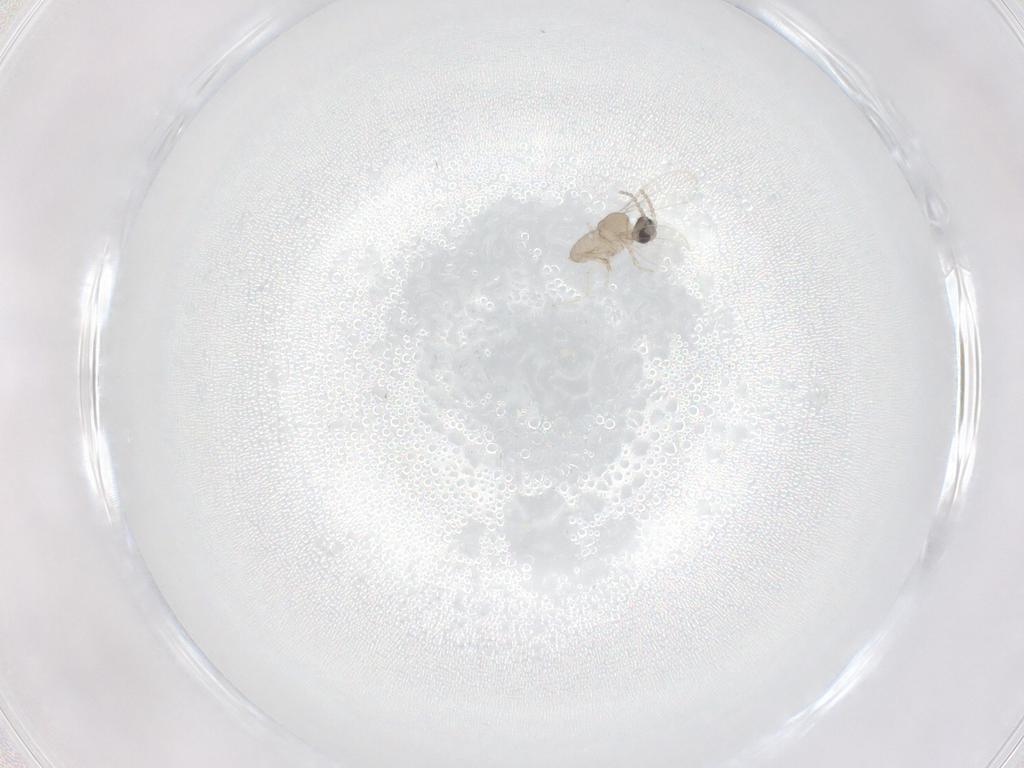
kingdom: Animalia
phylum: Arthropoda
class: Insecta
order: Diptera
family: Cecidomyiidae
